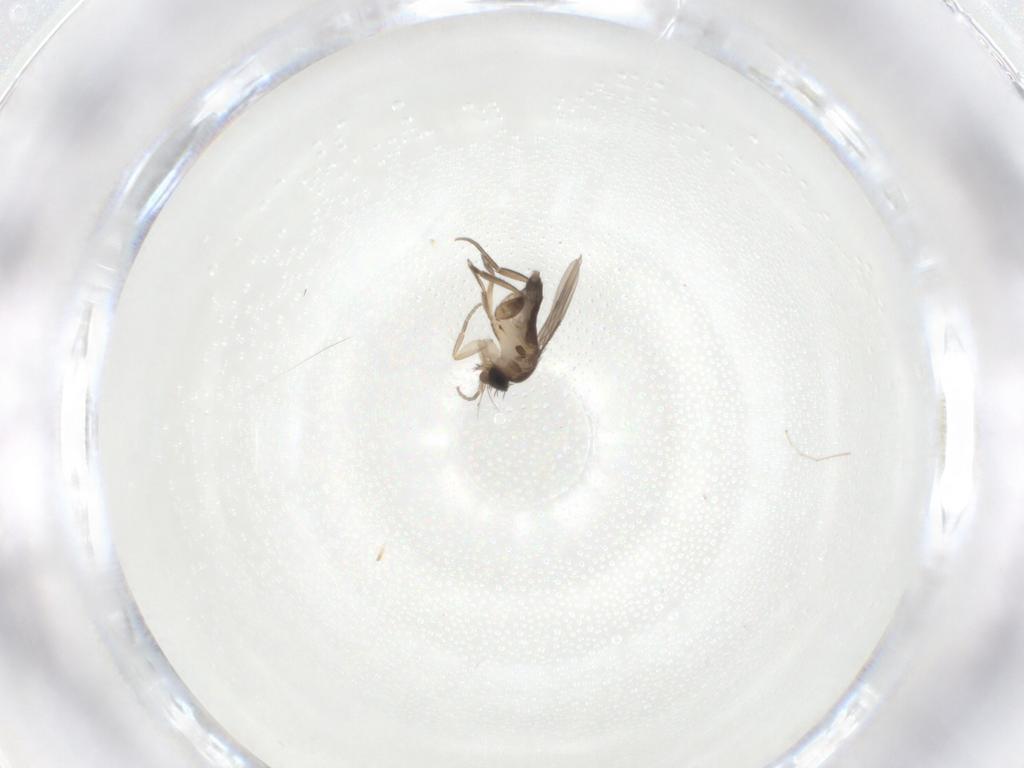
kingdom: Animalia
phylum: Arthropoda
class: Insecta
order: Diptera
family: Phoridae
